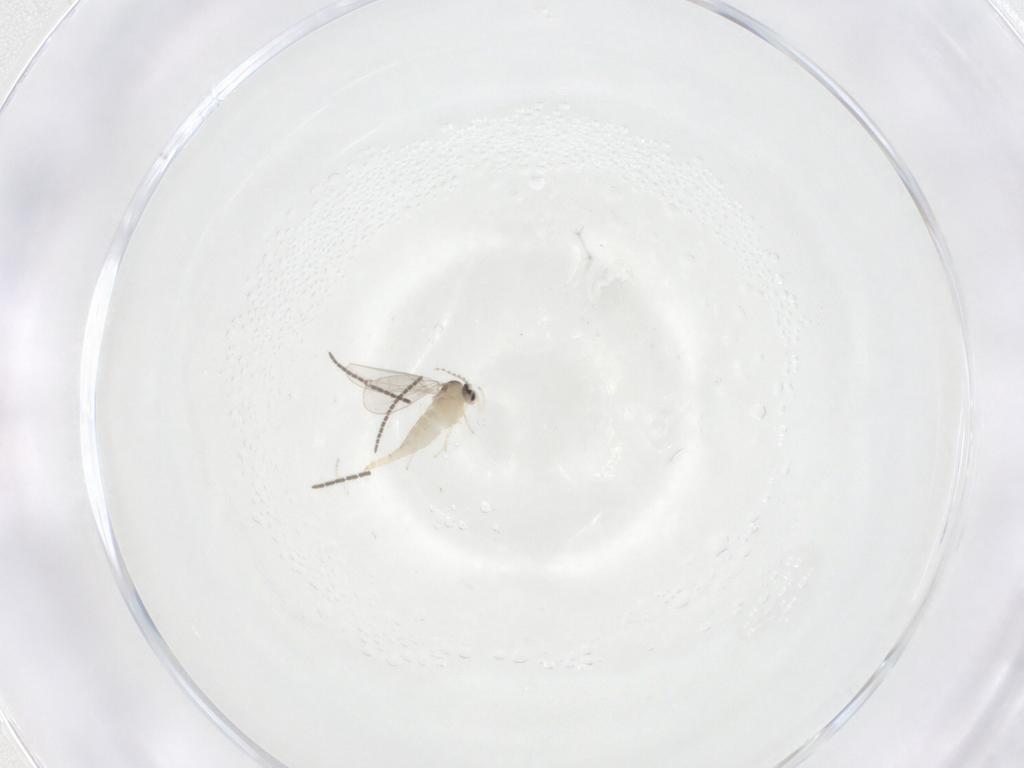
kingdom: Animalia
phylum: Arthropoda
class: Insecta
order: Diptera
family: Cecidomyiidae
